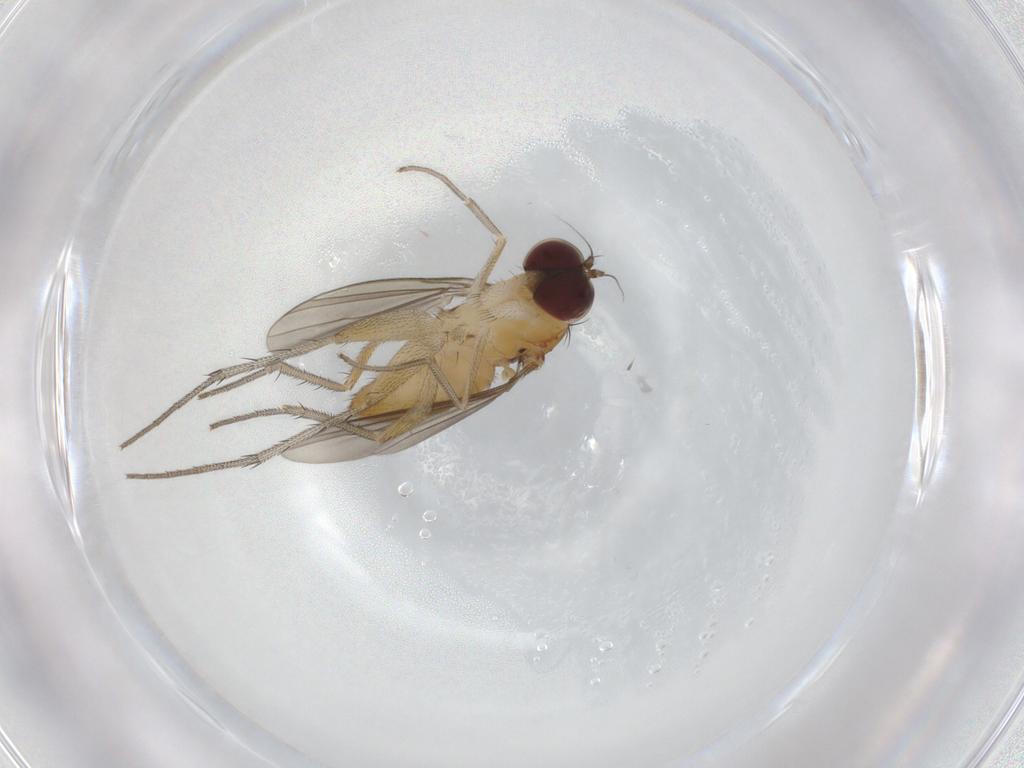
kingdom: Animalia
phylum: Arthropoda
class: Insecta
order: Diptera
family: Dolichopodidae
